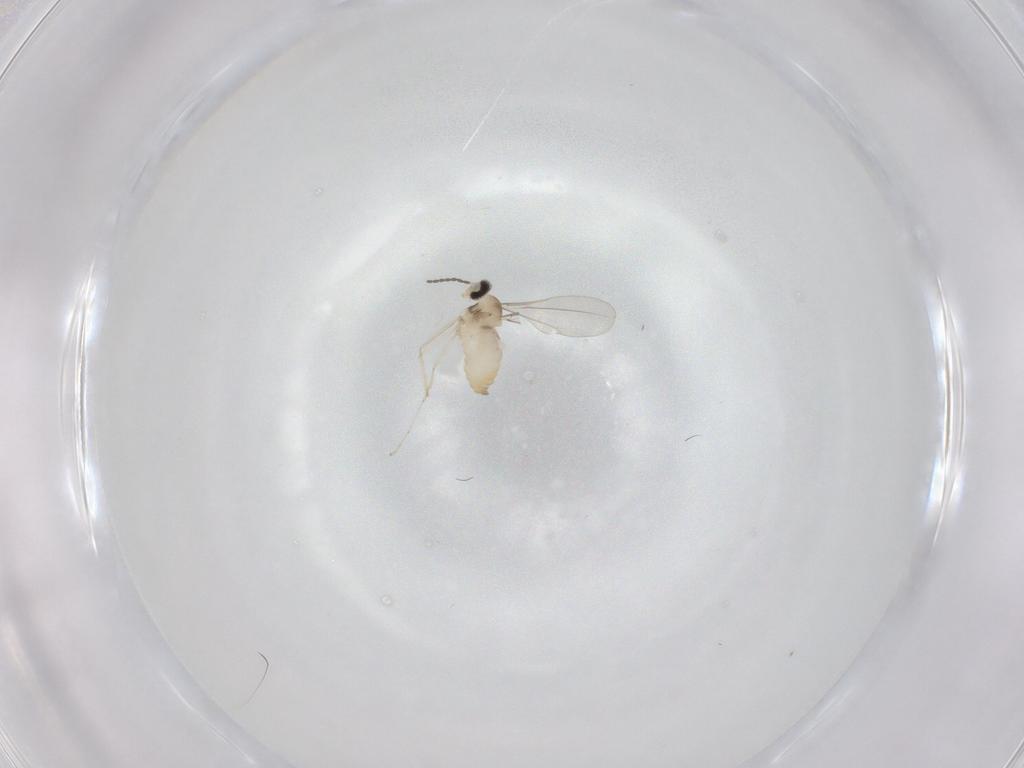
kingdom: Animalia
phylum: Arthropoda
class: Insecta
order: Diptera
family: Cecidomyiidae
